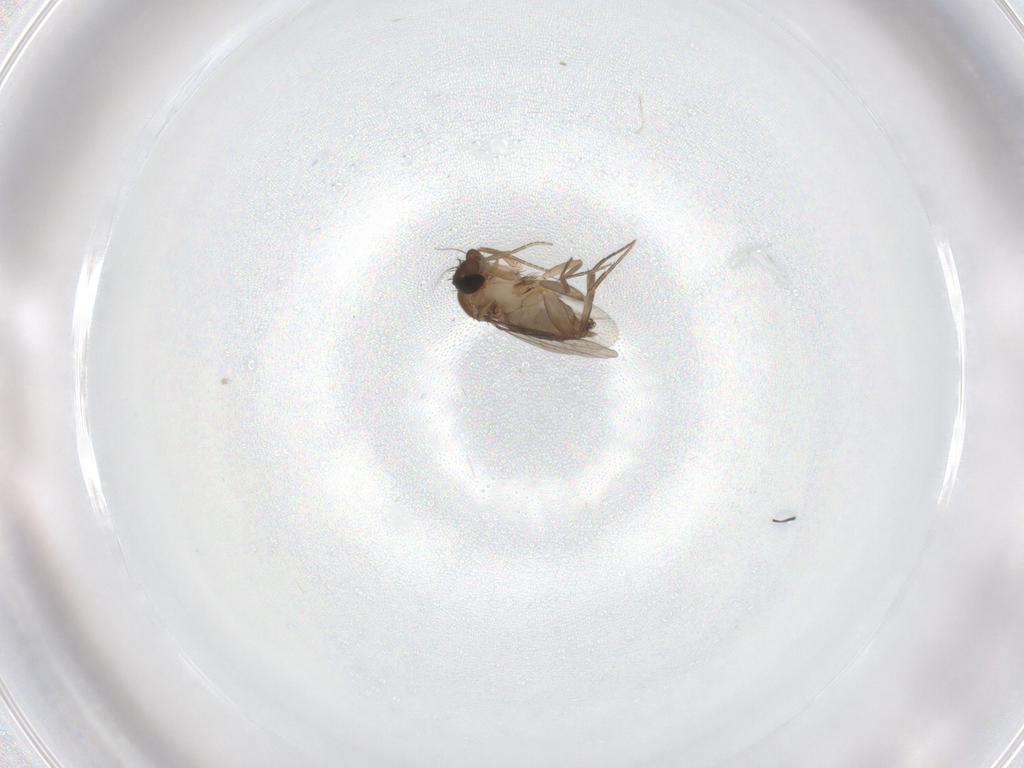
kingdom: Animalia
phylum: Arthropoda
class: Insecta
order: Diptera
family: Phoridae
